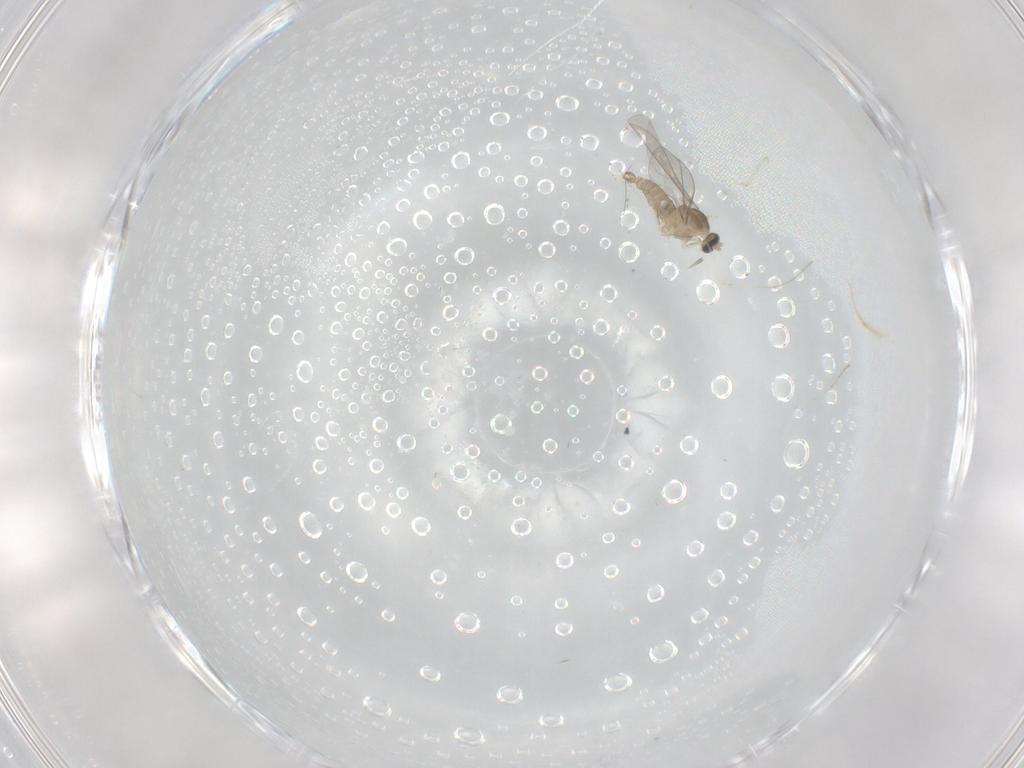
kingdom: Animalia
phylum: Arthropoda
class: Insecta
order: Diptera
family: Cecidomyiidae
